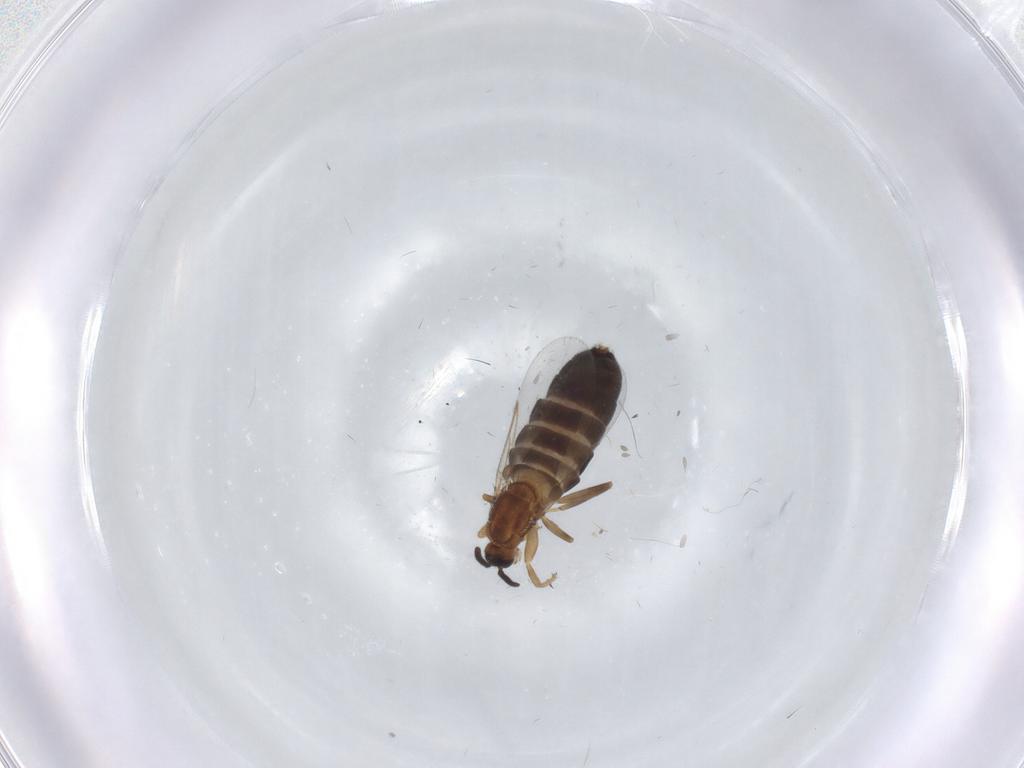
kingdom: Animalia
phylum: Arthropoda
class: Insecta
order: Diptera
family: Scatopsidae
